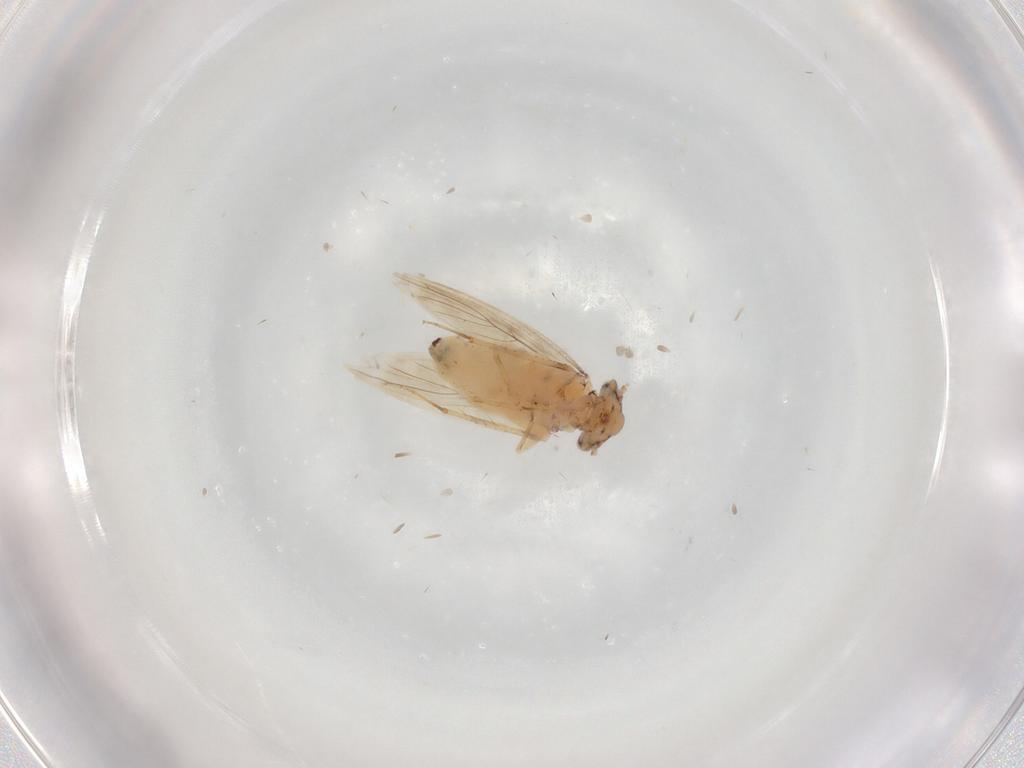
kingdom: Animalia
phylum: Arthropoda
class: Insecta
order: Psocodea
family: Lepidopsocidae
